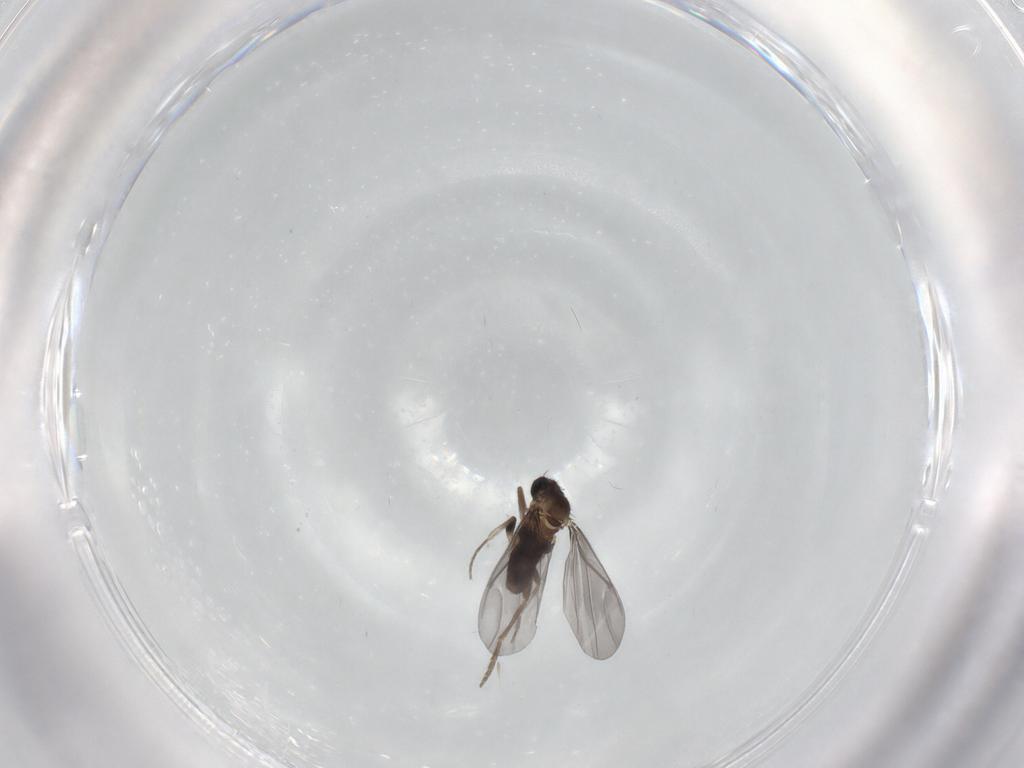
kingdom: Animalia
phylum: Arthropoda
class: Insecta
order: Diptera
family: Phoridae
